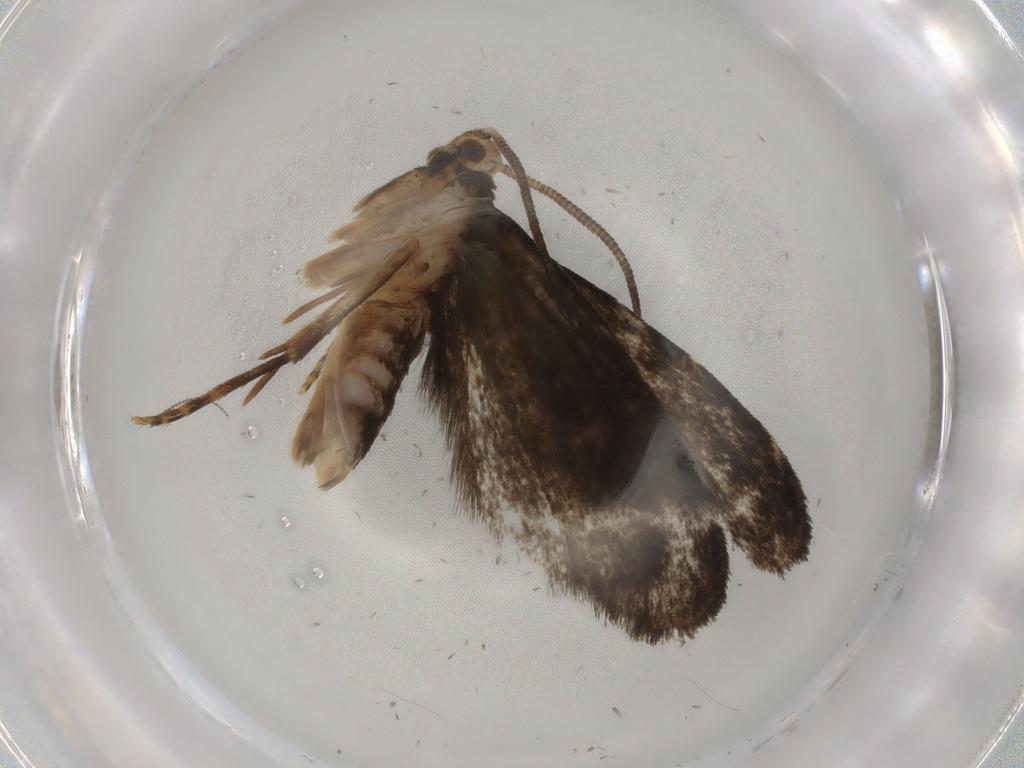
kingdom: Animalia
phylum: Arthropoda
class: Insecta
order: Lepidoptera
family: Dryadaulidae
